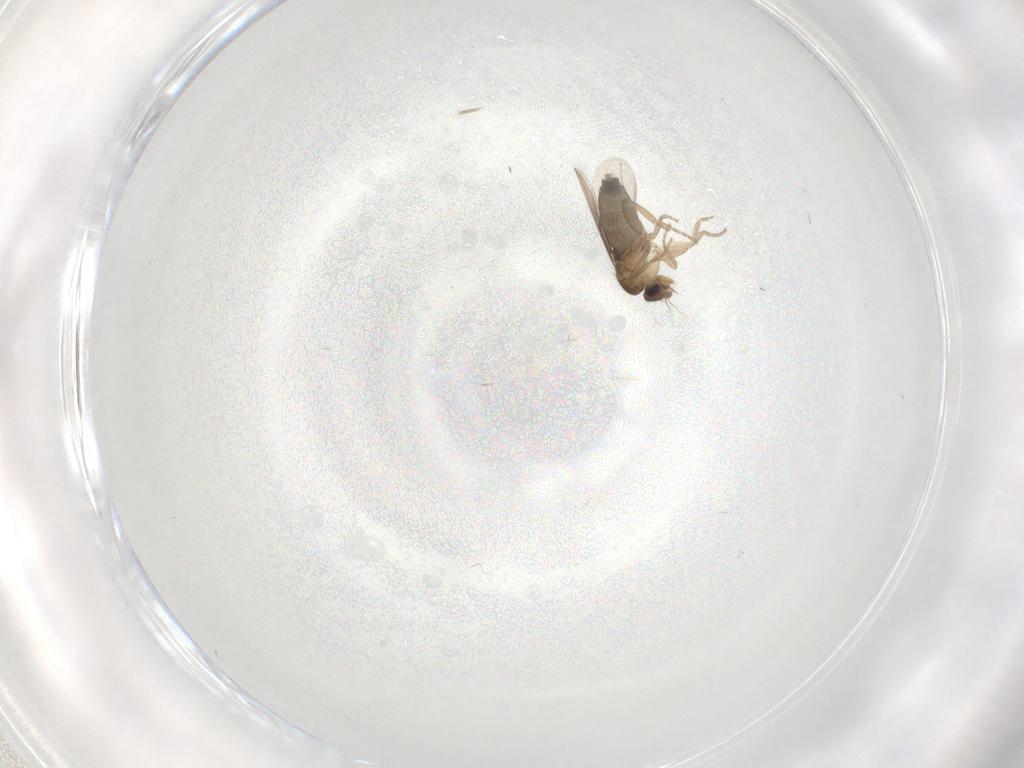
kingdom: Animalia
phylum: Arthropoda
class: Insecta
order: Diptera
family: Phoridae
